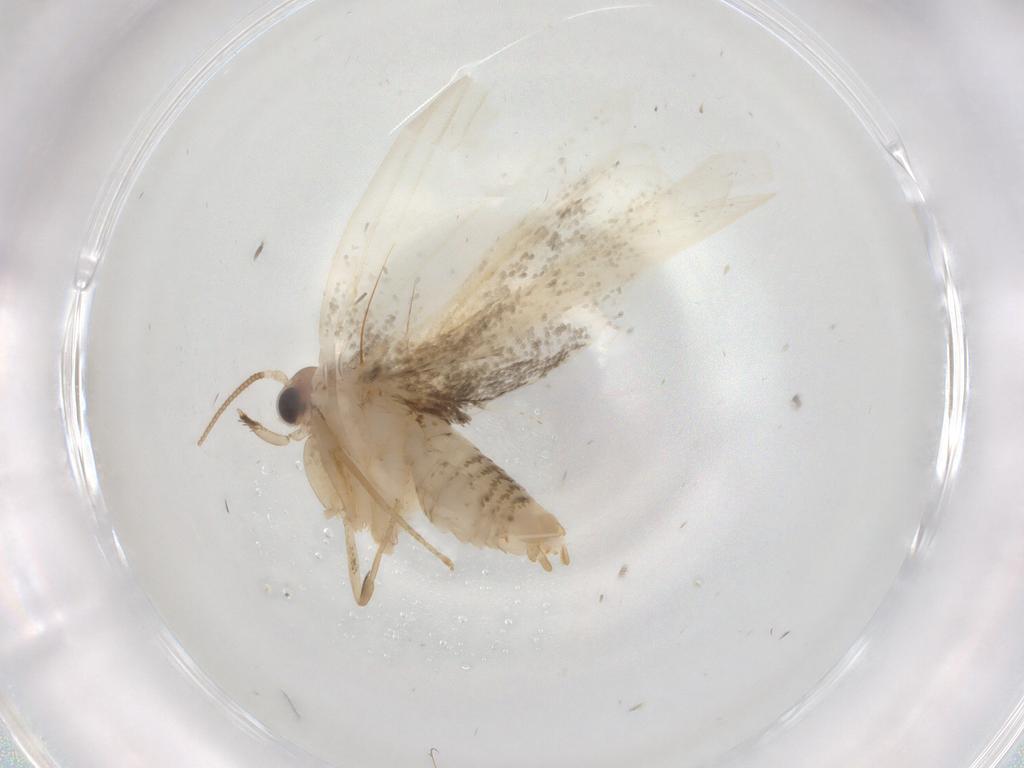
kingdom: Animalia
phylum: Arthropoda
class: Insecta
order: Lepidoptera
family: Psychidae
